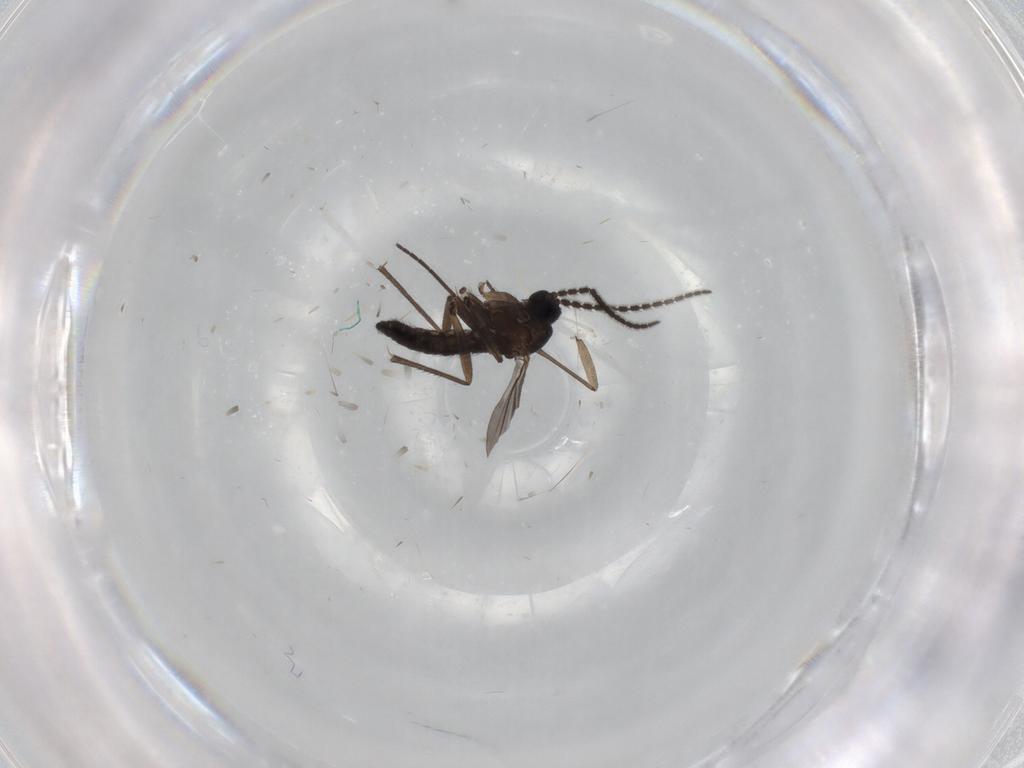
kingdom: Animalia
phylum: Arthropoda
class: Insecta
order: Diptera
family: Sciaridae
